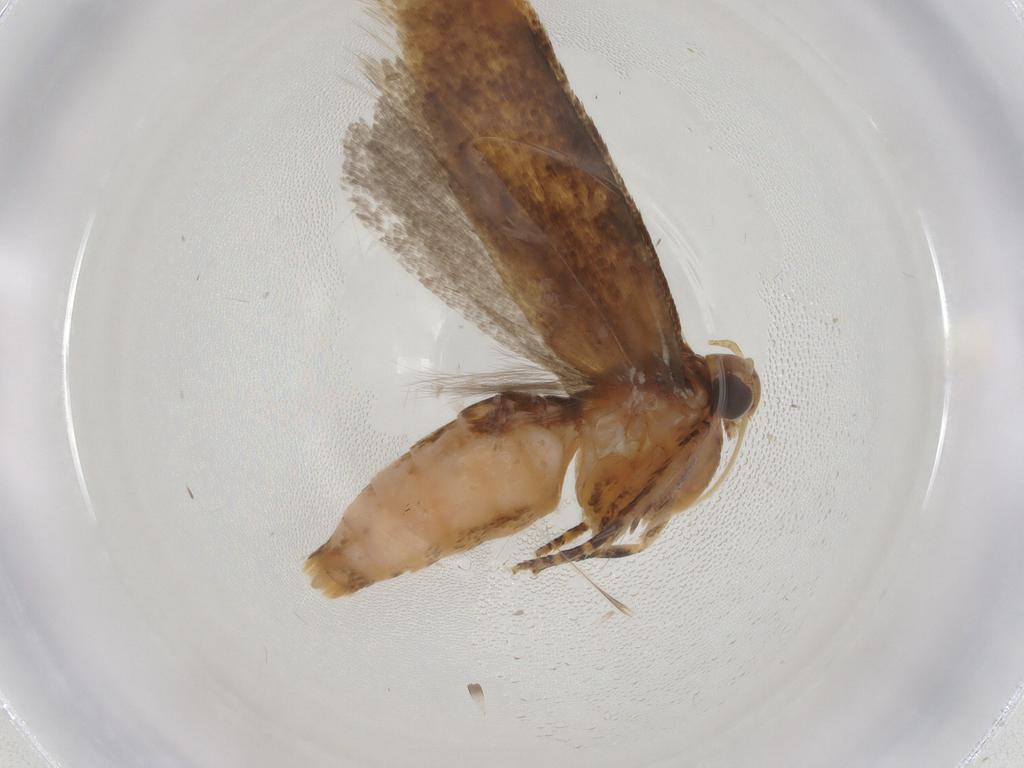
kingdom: Animalia
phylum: Arthropoda
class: Insecta
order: Lepidoptera
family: Gelechiidae
